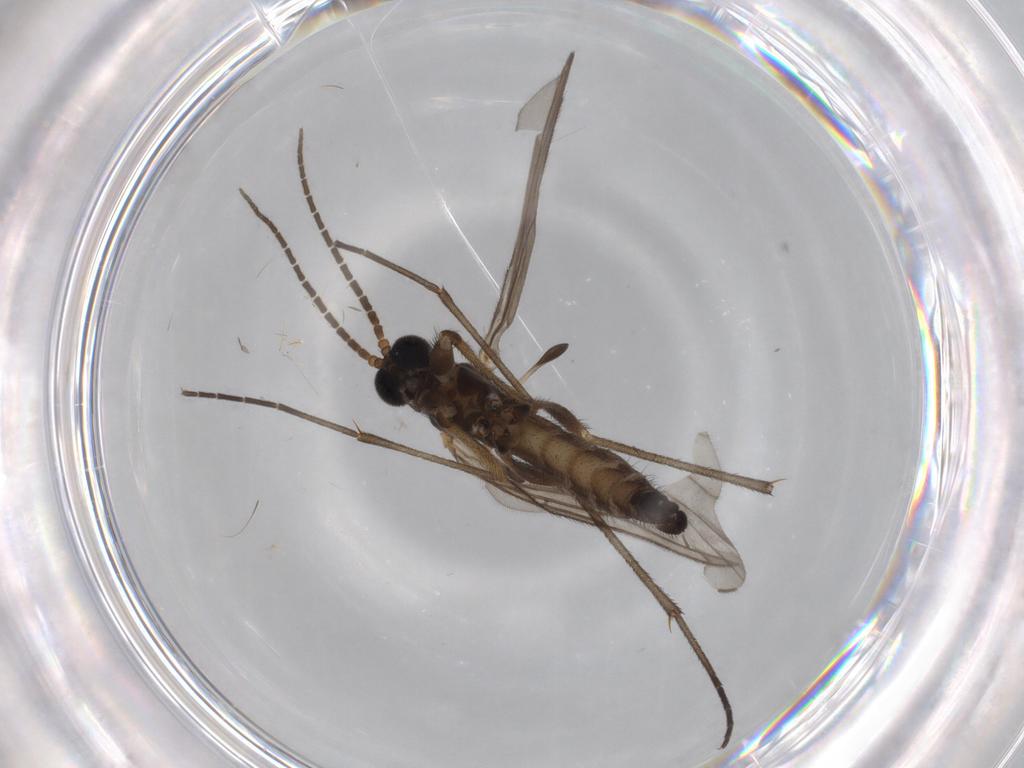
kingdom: Animalia
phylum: Arthropoda
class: Insecta
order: Diptera
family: Sciaridae
